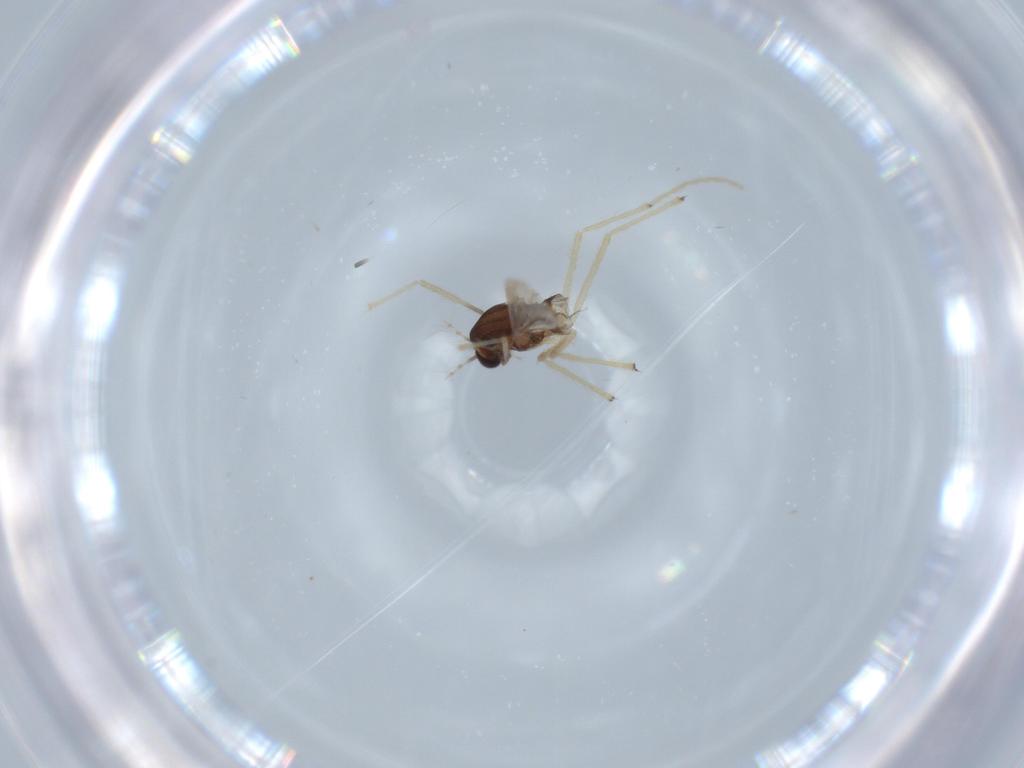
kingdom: Animalia
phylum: Arthropoda
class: Insecta
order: Diptera
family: Chironomidae
